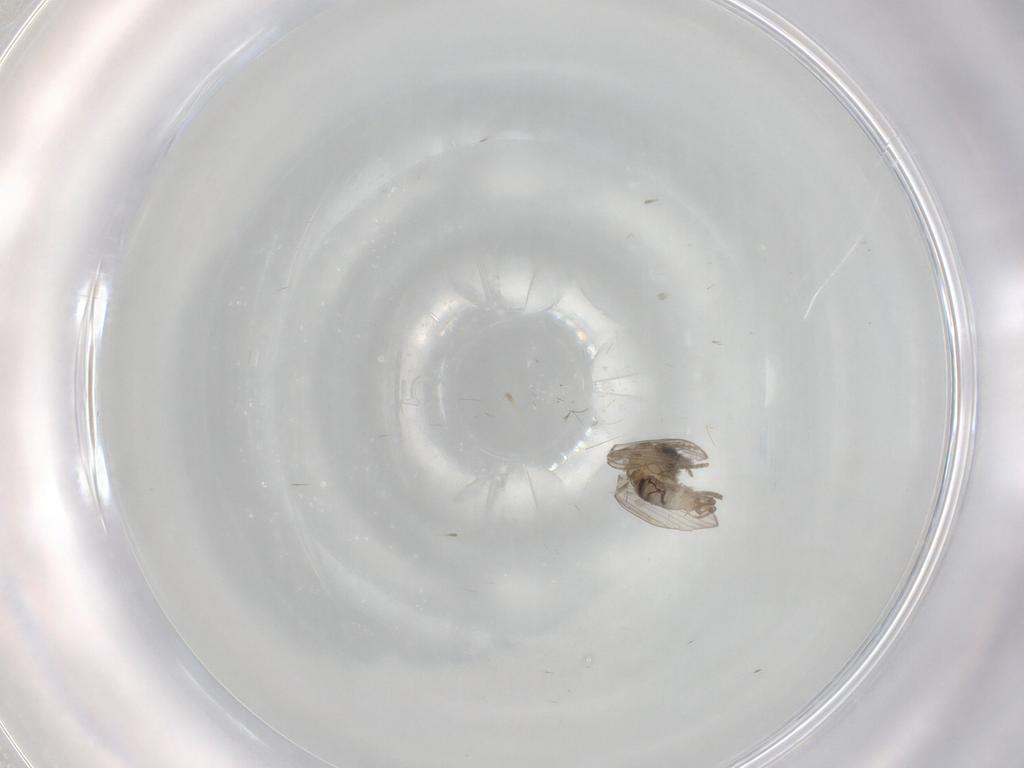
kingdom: Animalia
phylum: Arthropoda
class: Insecta
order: Diptera
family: Psychodidae
